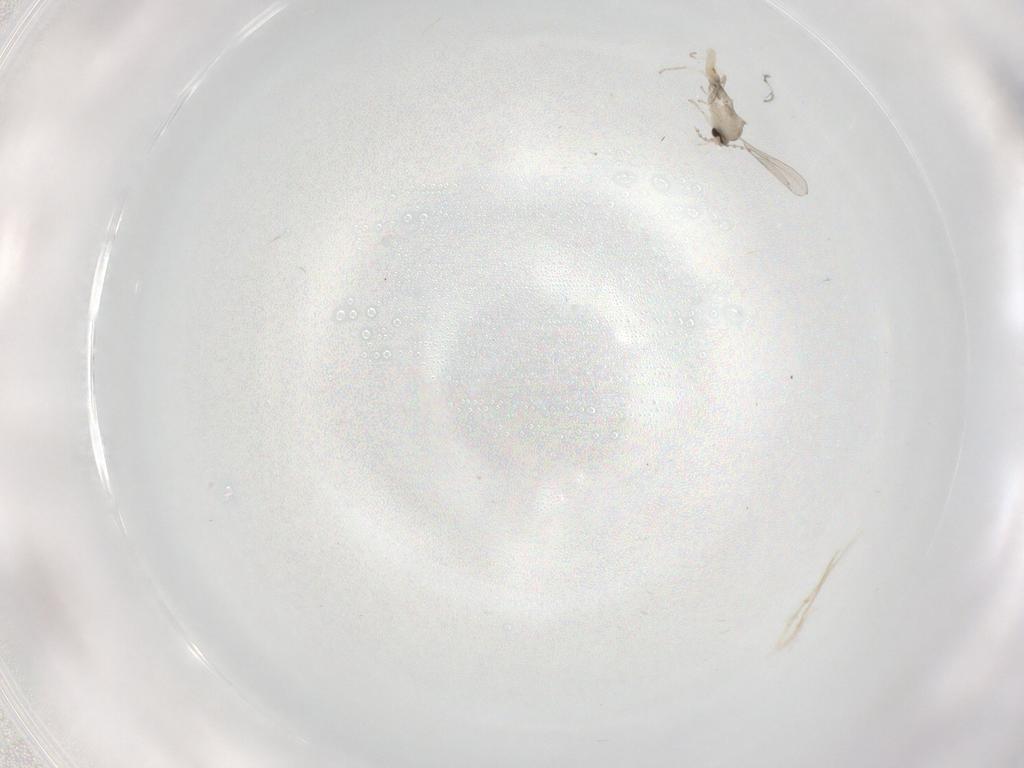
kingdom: Animalia
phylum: Arthropoda
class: Insecta
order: Diptera
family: Cecidomyiidae
